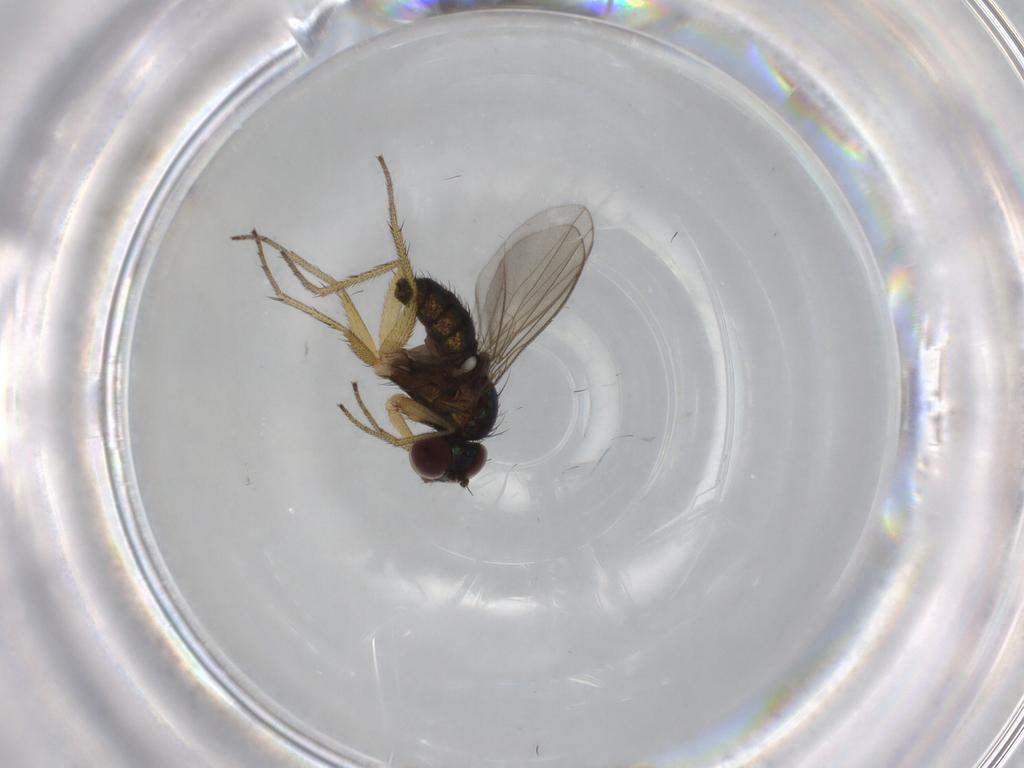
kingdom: Animalia
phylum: Arthropoda
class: Insecta
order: Diptera
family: Dolichopodidae
